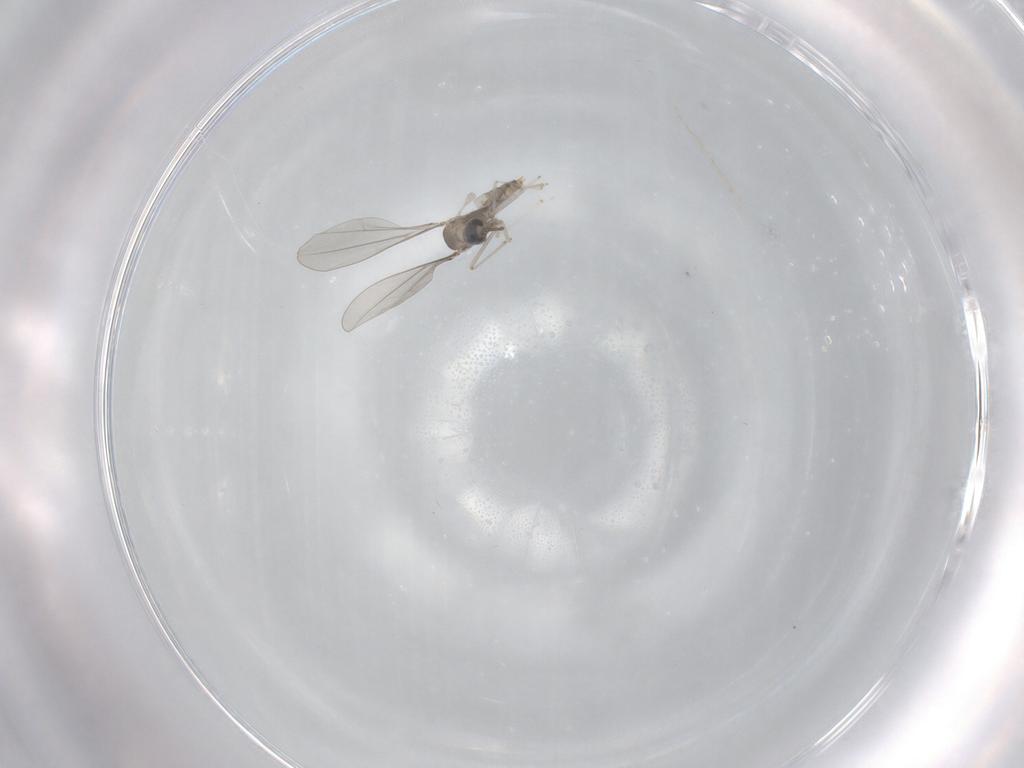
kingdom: Animalia
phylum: Arthropoda
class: Insecta
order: Diptera
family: Cecidomyiidae
